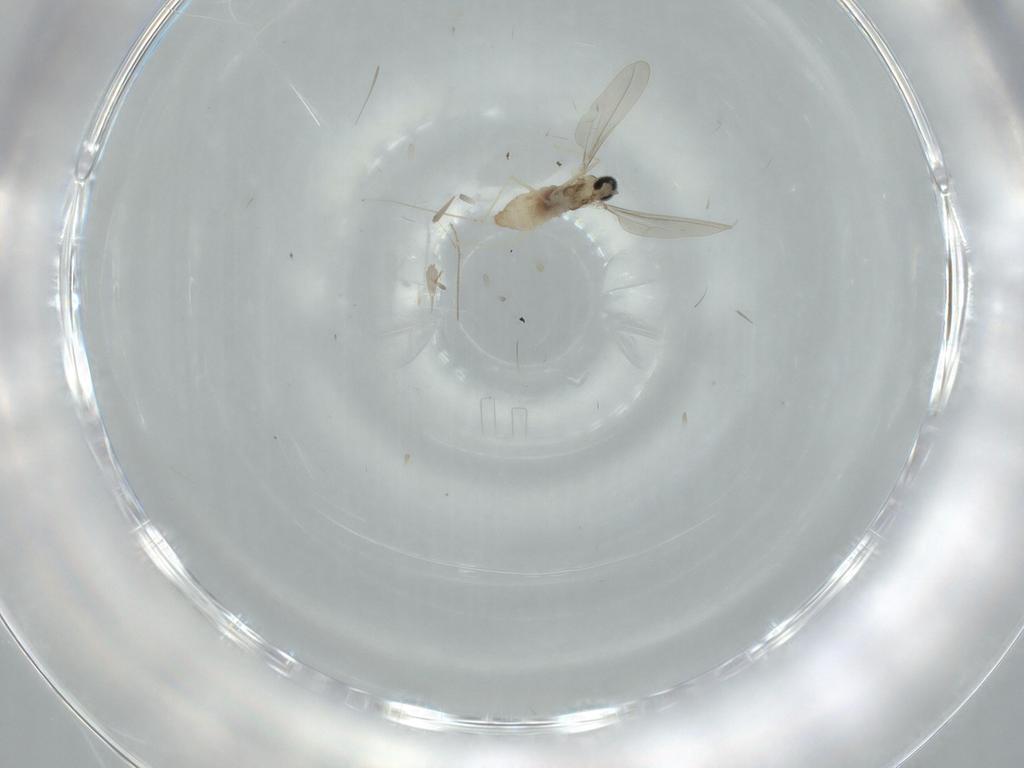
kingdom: Animalia
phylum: Arthropoda
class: Insecta
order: Diptera
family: Cecidomyiidae
